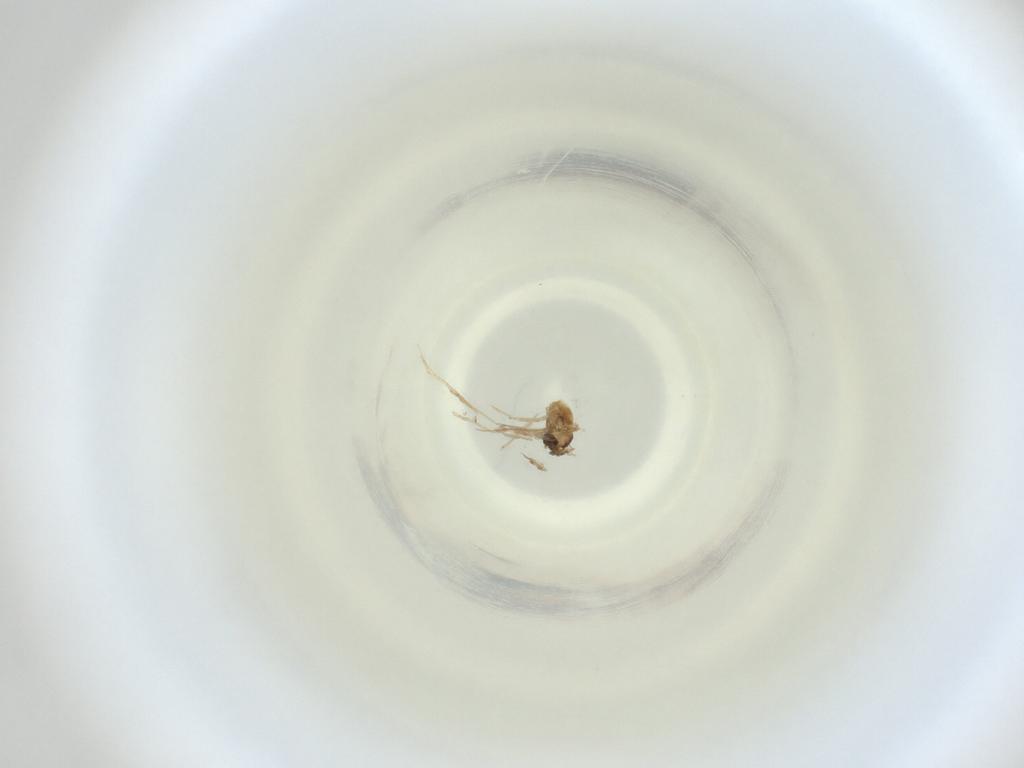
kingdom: Animalia
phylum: Arthropoda
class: Insecta
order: Diptera
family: Cecidomyiidae
